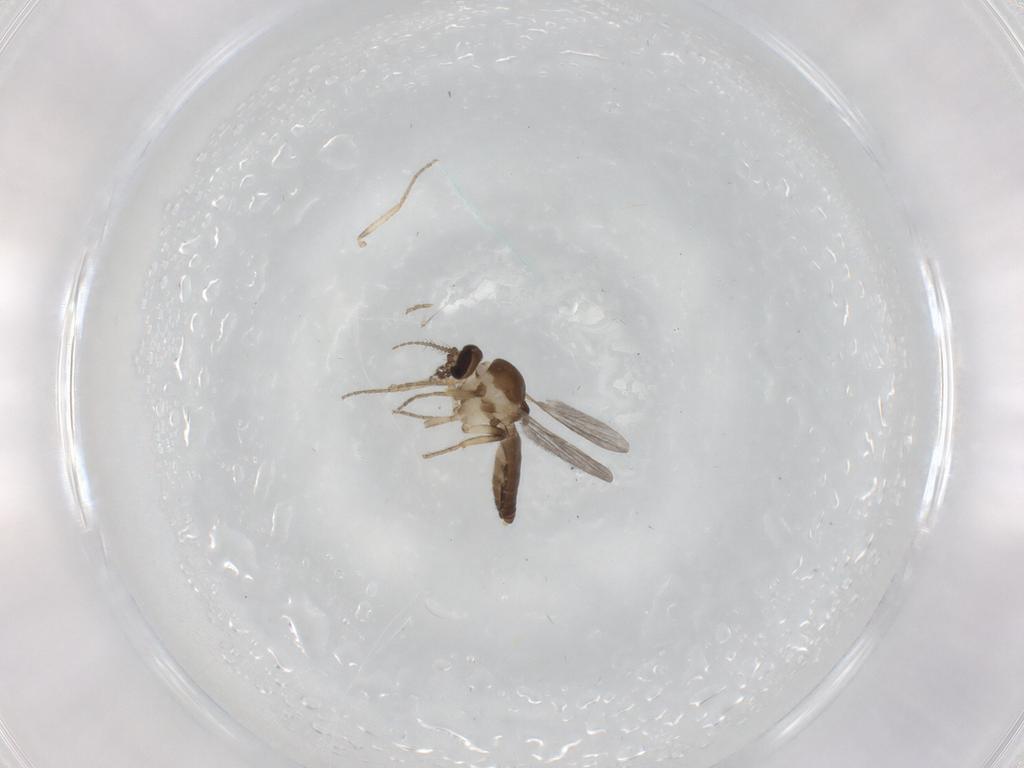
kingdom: Animalia
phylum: Arthropoda
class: Insecta
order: Diptera
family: Ceratopogonidae
